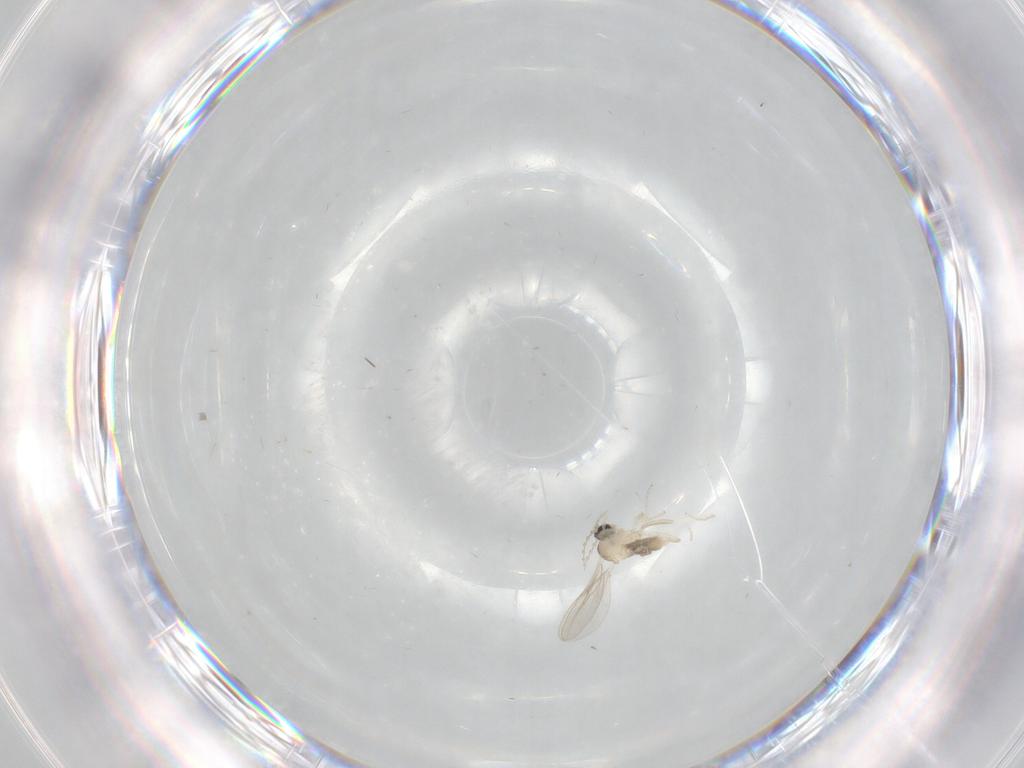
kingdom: Animalia
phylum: Arthropoda
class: Insecta
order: Diptera
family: Cecidomyiidae
